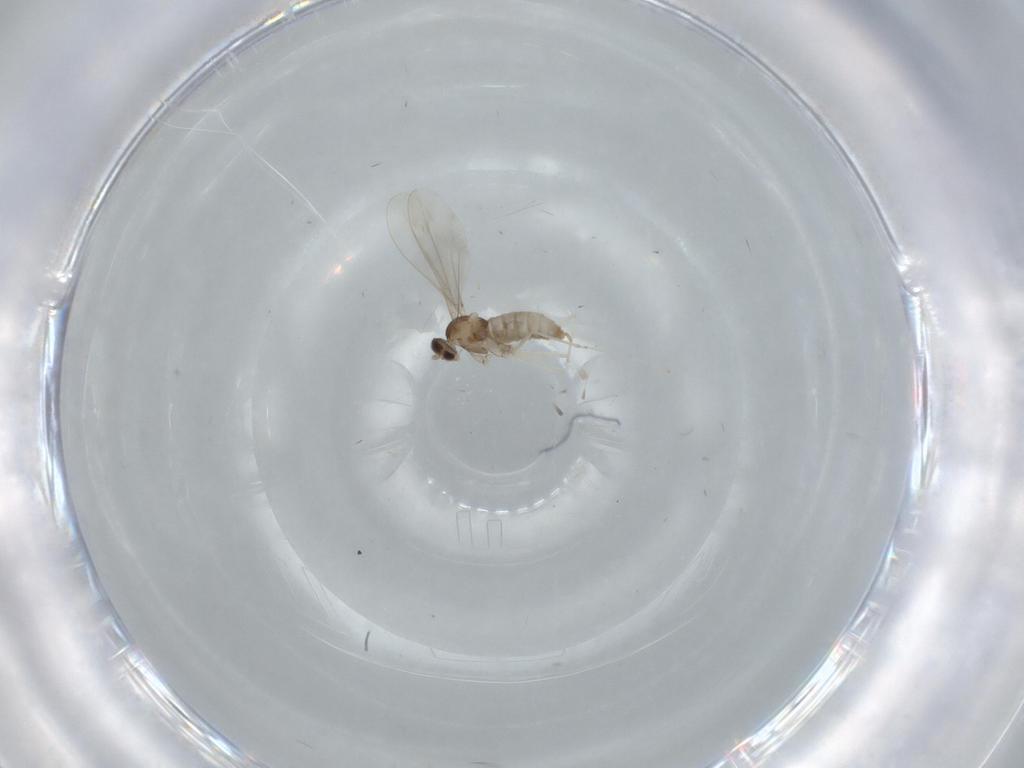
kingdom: Animalia
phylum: Arthropoda
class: Insecta
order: Diptera
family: Cecidomyiidae
